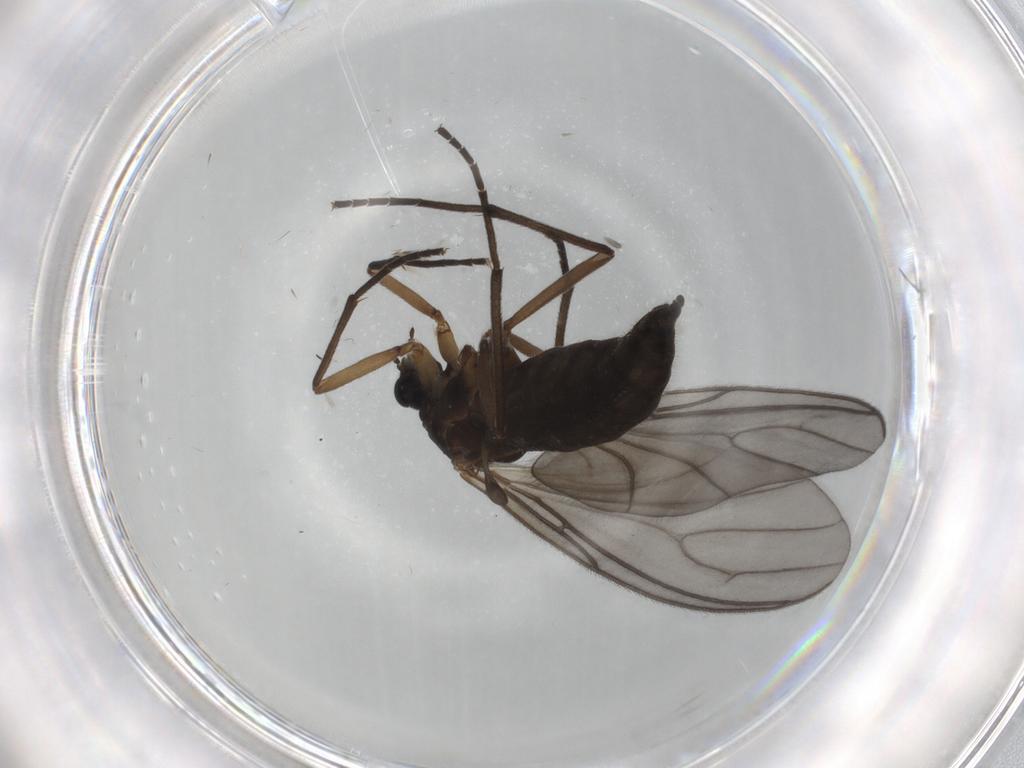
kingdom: Animalia
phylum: Arthropoda
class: Insecta
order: Diptera
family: Sciaridae
